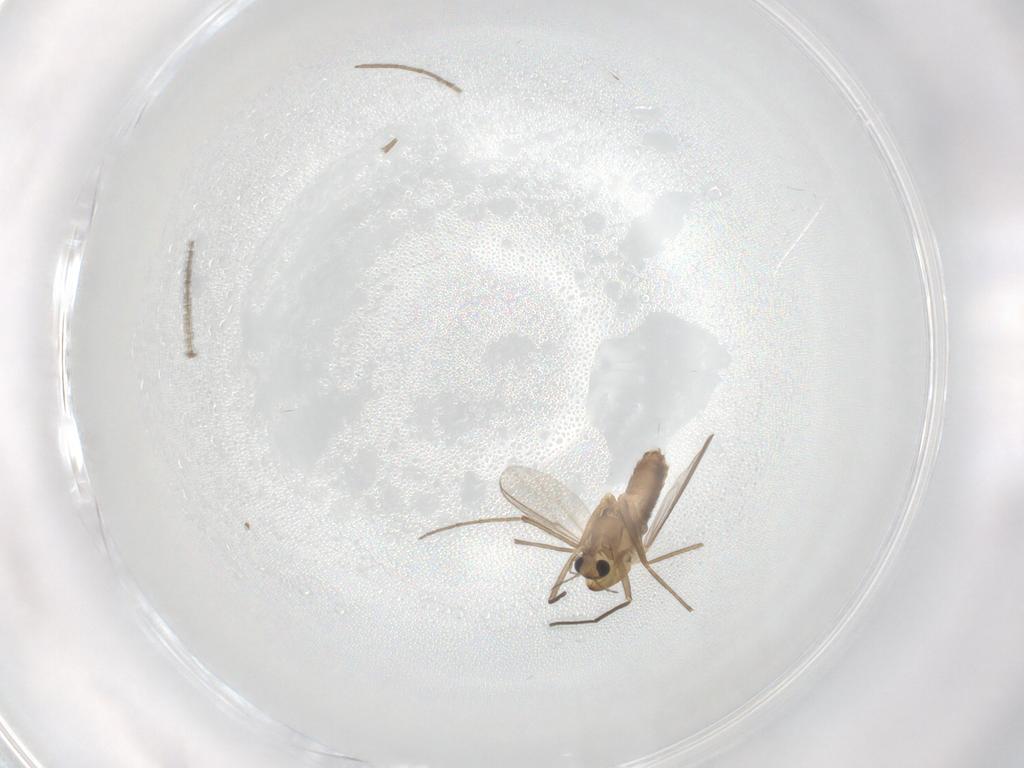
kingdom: Animalia
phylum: Arthropoda
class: Insecta
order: Diptera
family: Chironomidae
